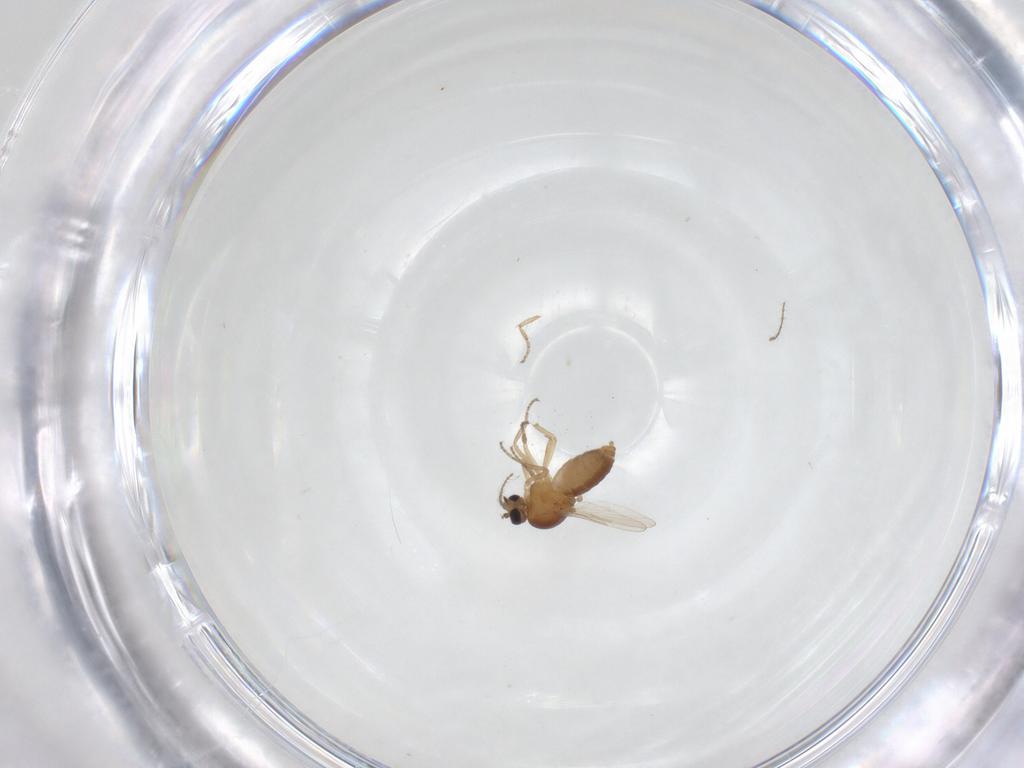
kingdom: Animalia
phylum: Arthropoda
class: Insecta
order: Diptera
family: Ceratopogonidae
